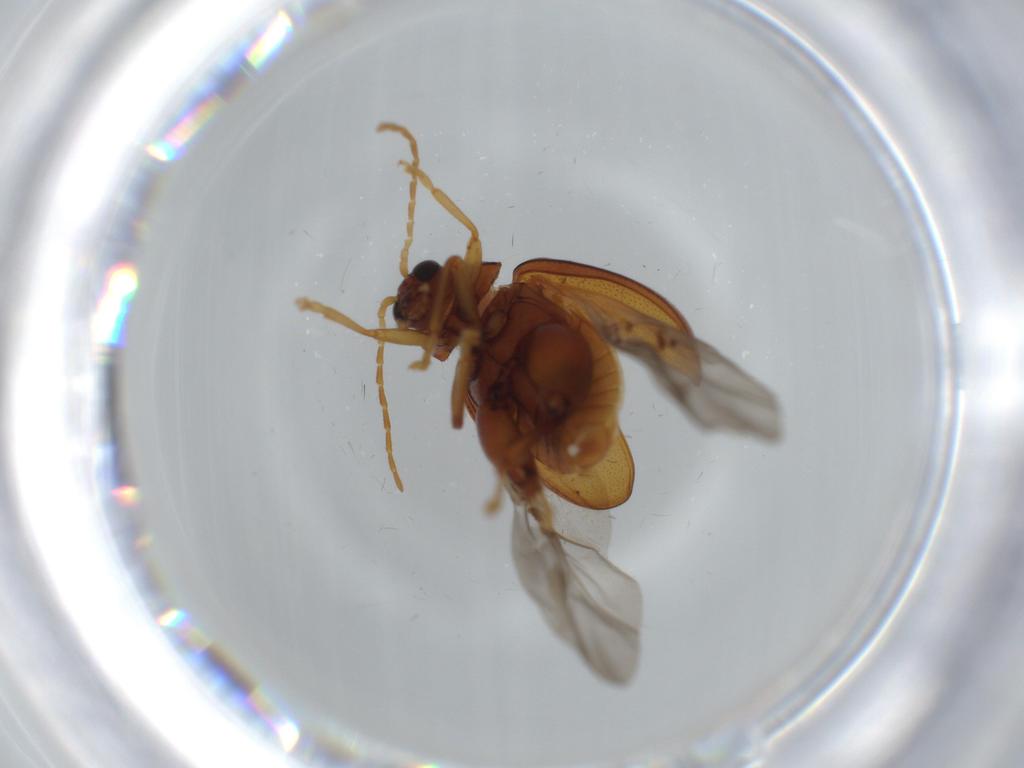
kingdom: Animalia
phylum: Arthropoda
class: Insecta
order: Coleoptera
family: Chrysomelidae
